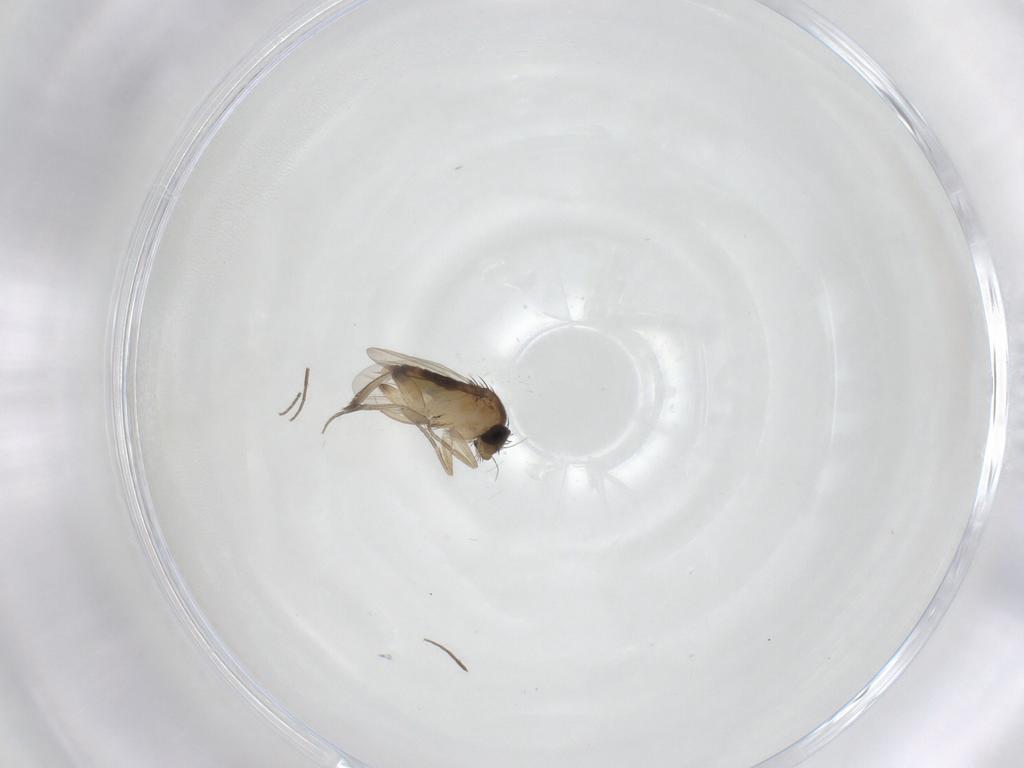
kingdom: Animalia
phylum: Arthropoda
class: Insecta
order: Diptera
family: Phoridae
